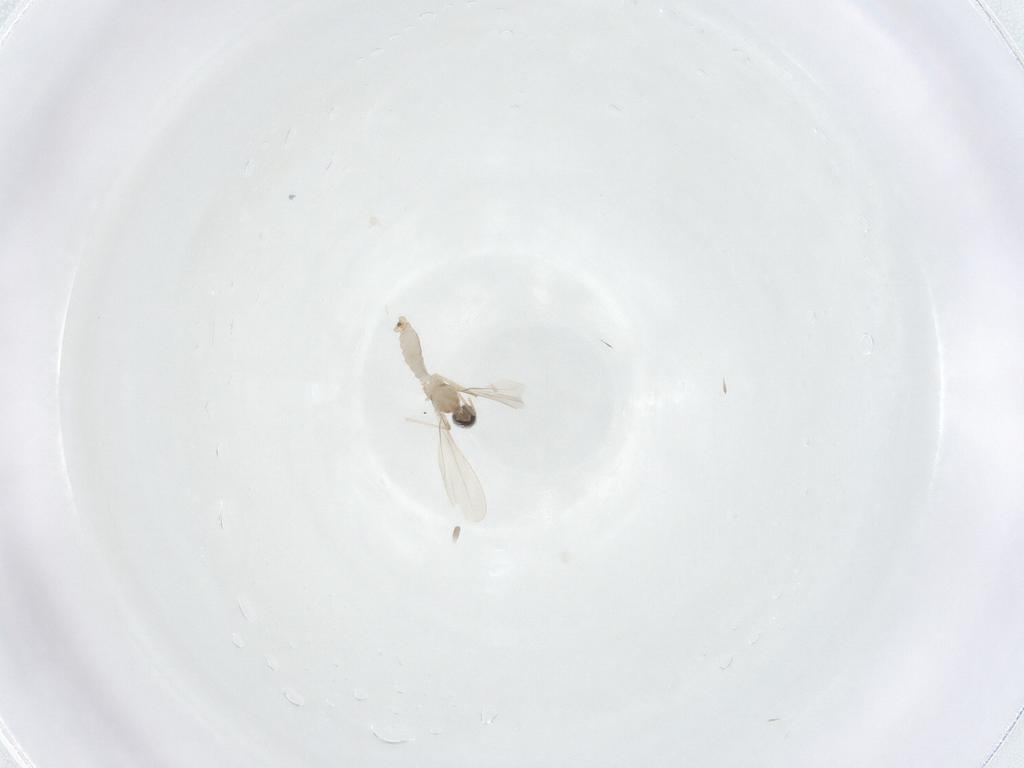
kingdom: Animalia
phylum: Arthropoda
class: Insecta
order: Diptera
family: Cecidomyiidae
